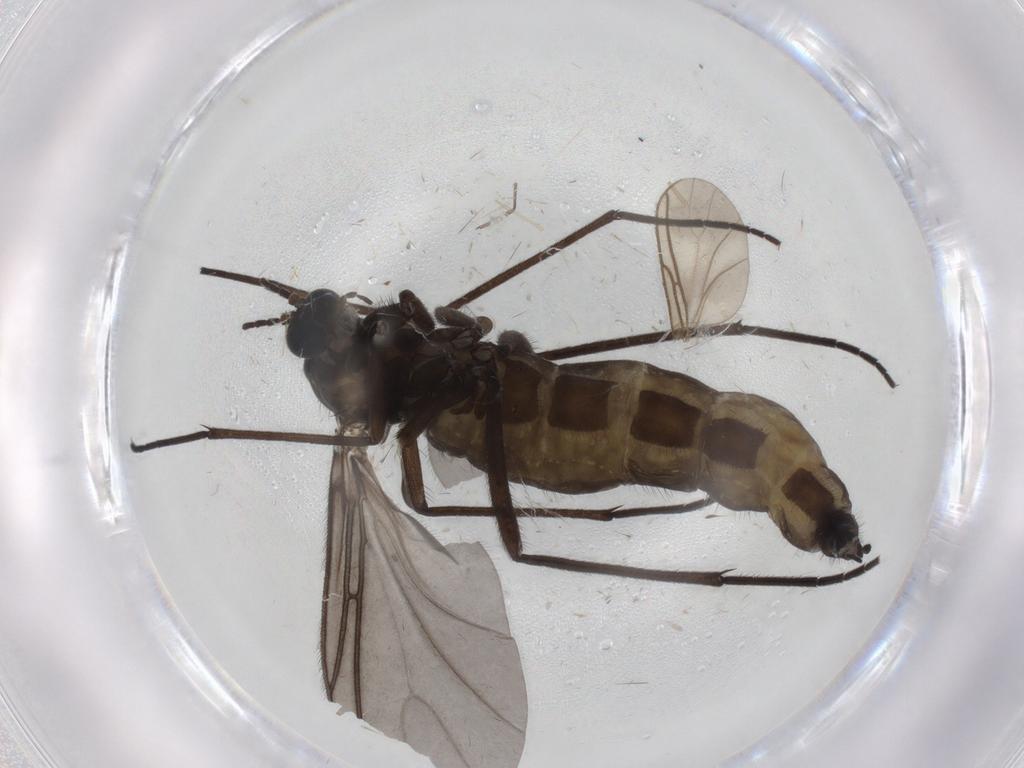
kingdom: Animalia
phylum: Arthropoda
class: Insecta
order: Diptera
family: Sciaridae
